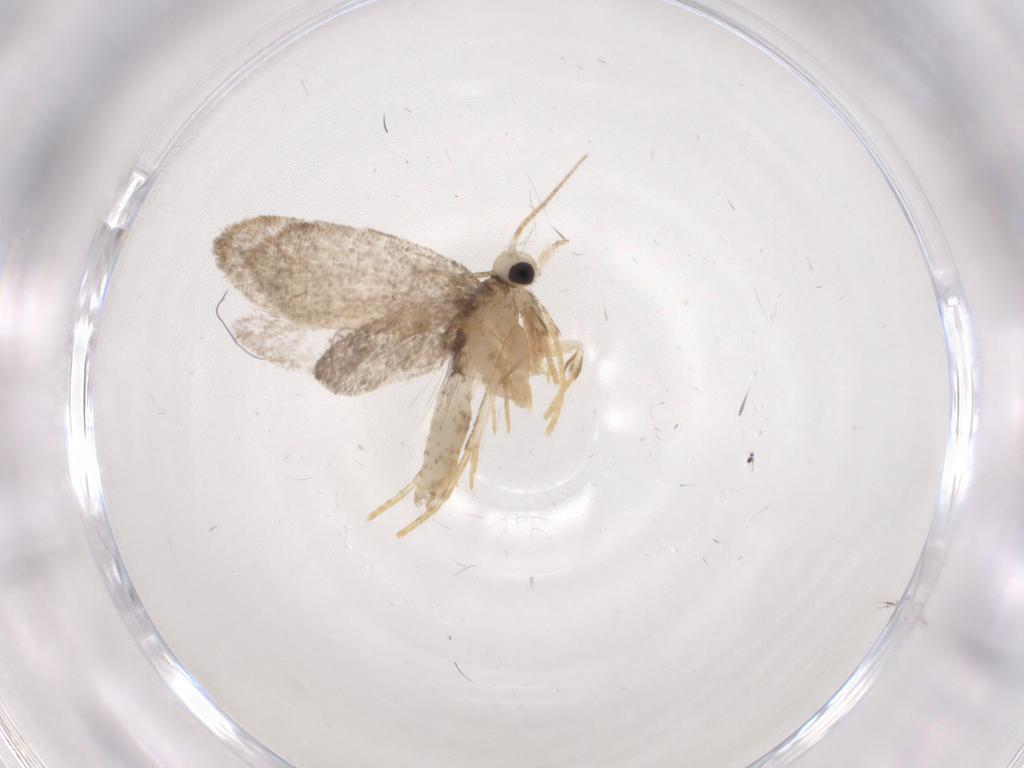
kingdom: Animalia
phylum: Arthropoda
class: Insecta
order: Lepidoptera
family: Psychidae
